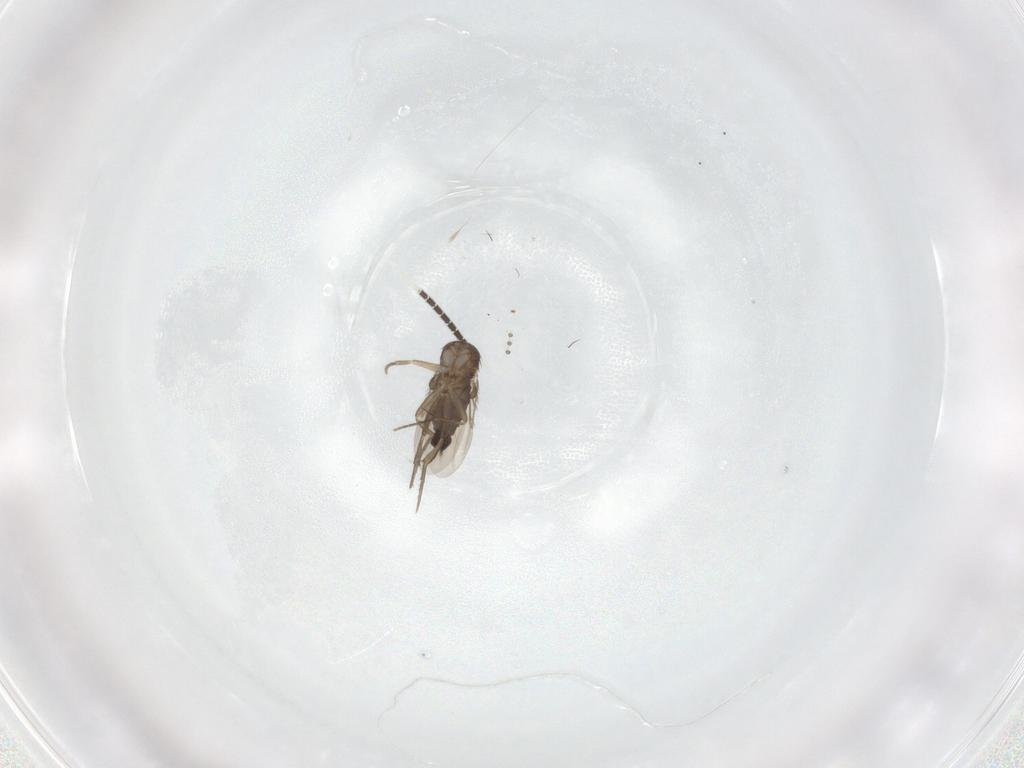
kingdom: Animalia
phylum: Arthropoda
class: Insecta
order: Diptera
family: Phoridae
